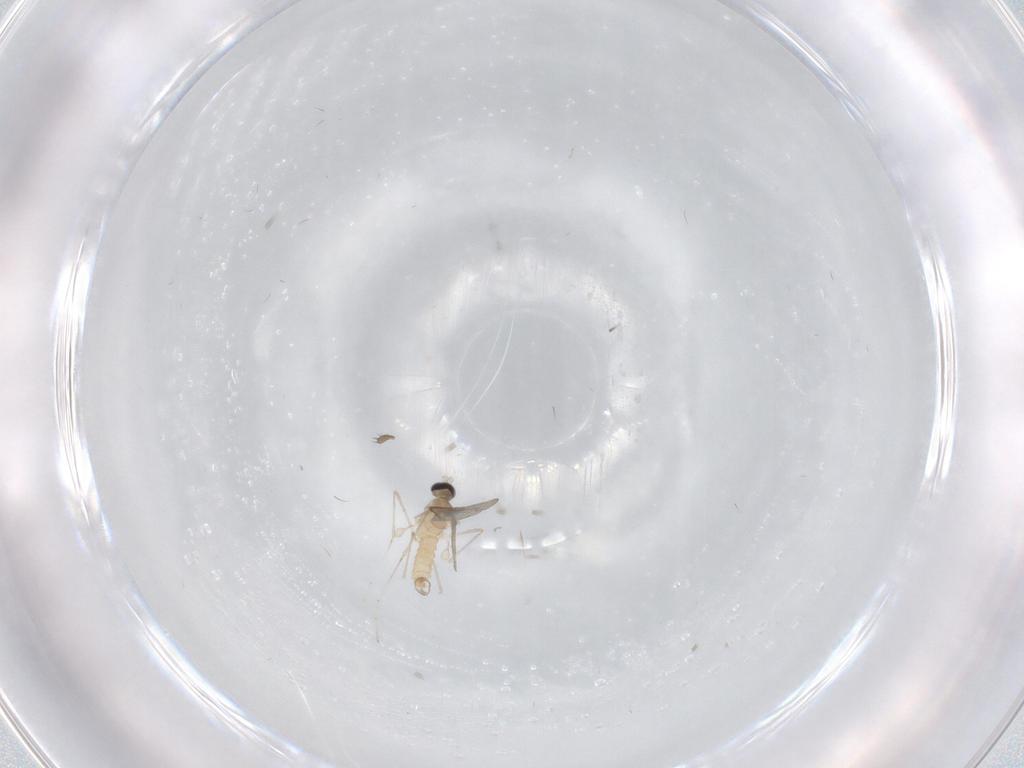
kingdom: Animalia
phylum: Arthropoda
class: Insecta
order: Diptera
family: Cecidomyiidae
